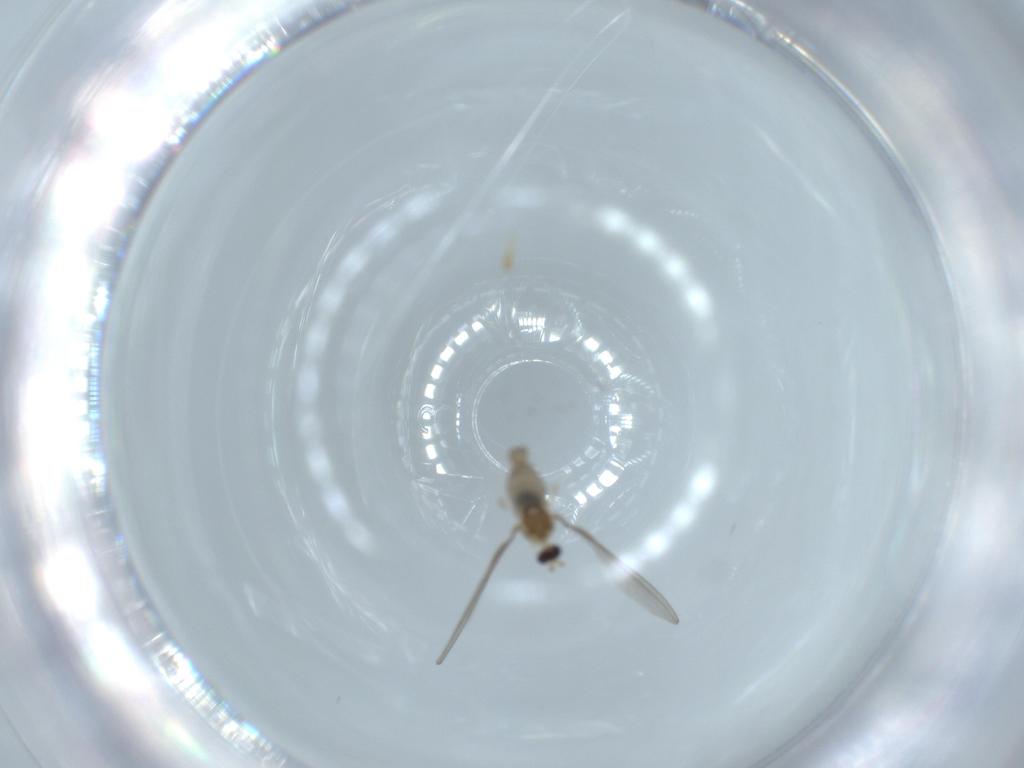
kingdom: Animalia
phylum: Arthropoda
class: Insecta
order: Diptera
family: Cecidomyiidae
